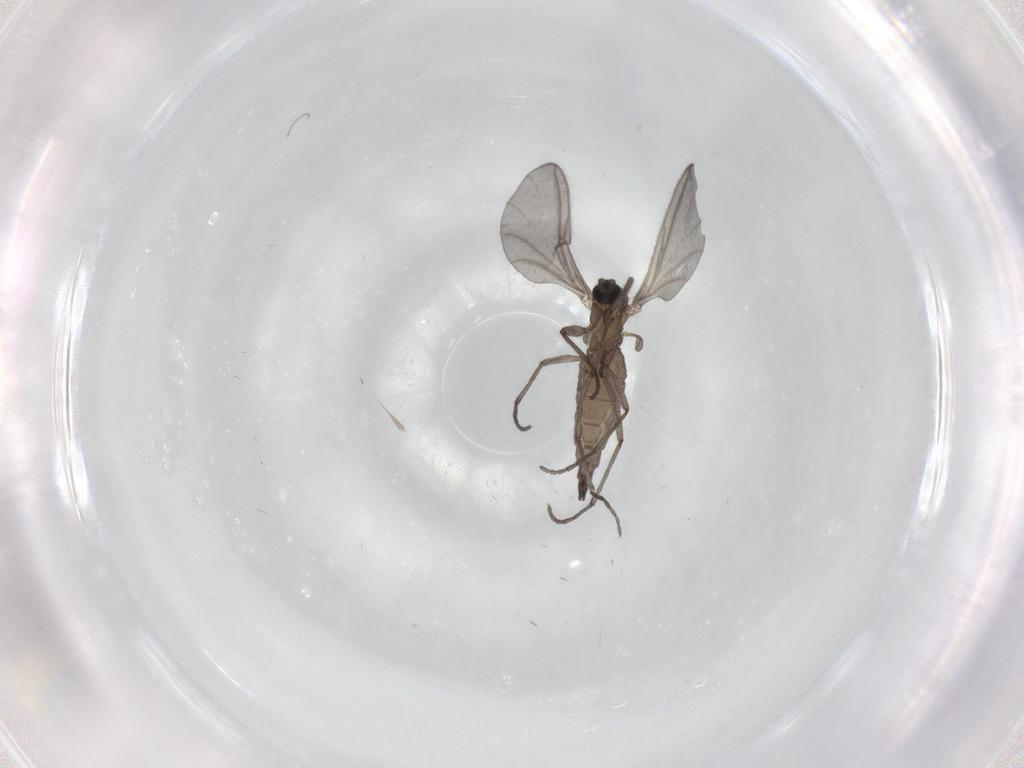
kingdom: Animalia
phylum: Arthropoda
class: Insecta
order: Diptera
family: Sciaridae
